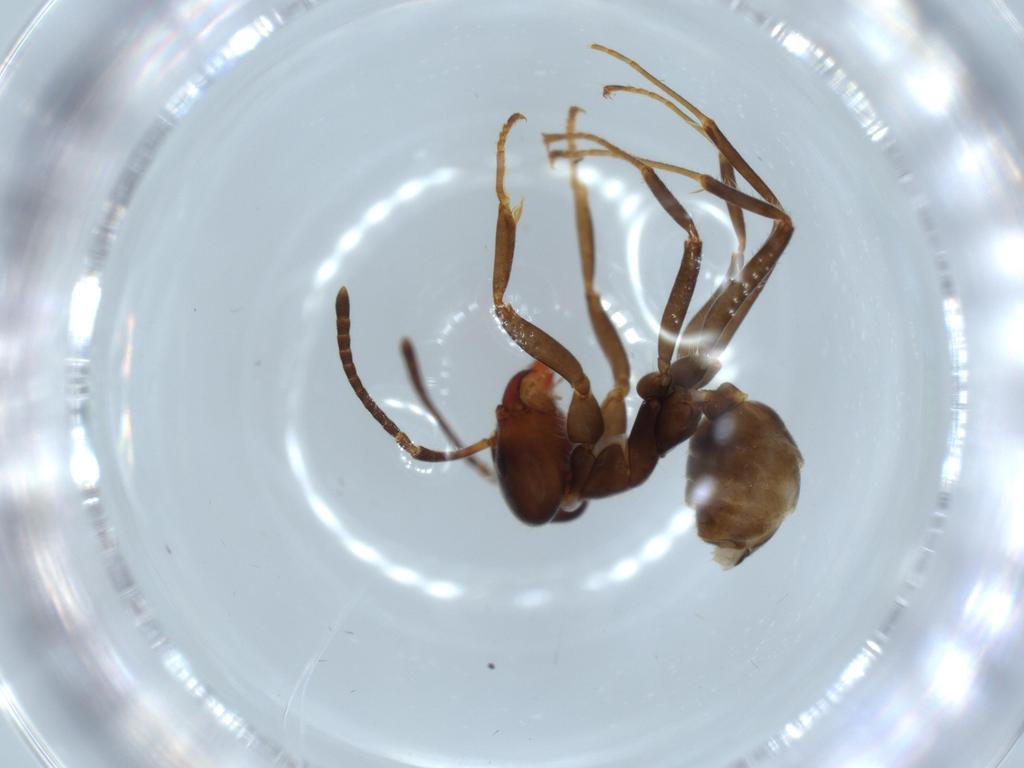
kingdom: Animalia
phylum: Arthropoda
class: Insecta
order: Hymenoptera
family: Formicidae
